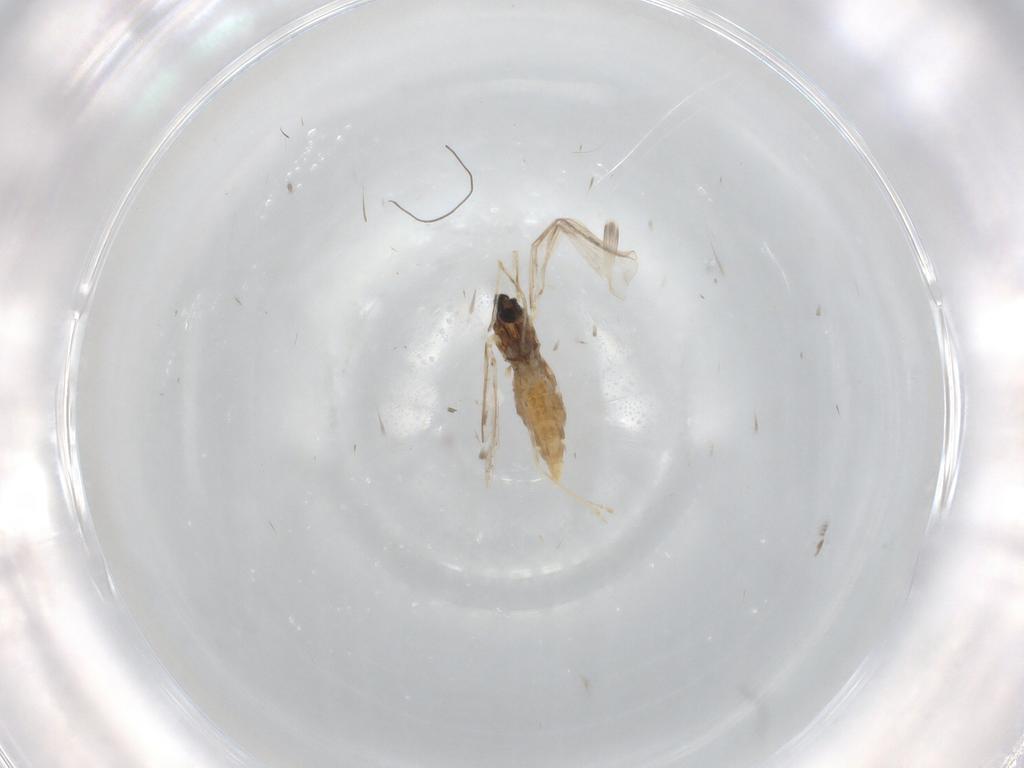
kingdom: Animalia
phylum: Arthropoda
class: Insecta
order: Diptera
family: Cecidomyiidae
